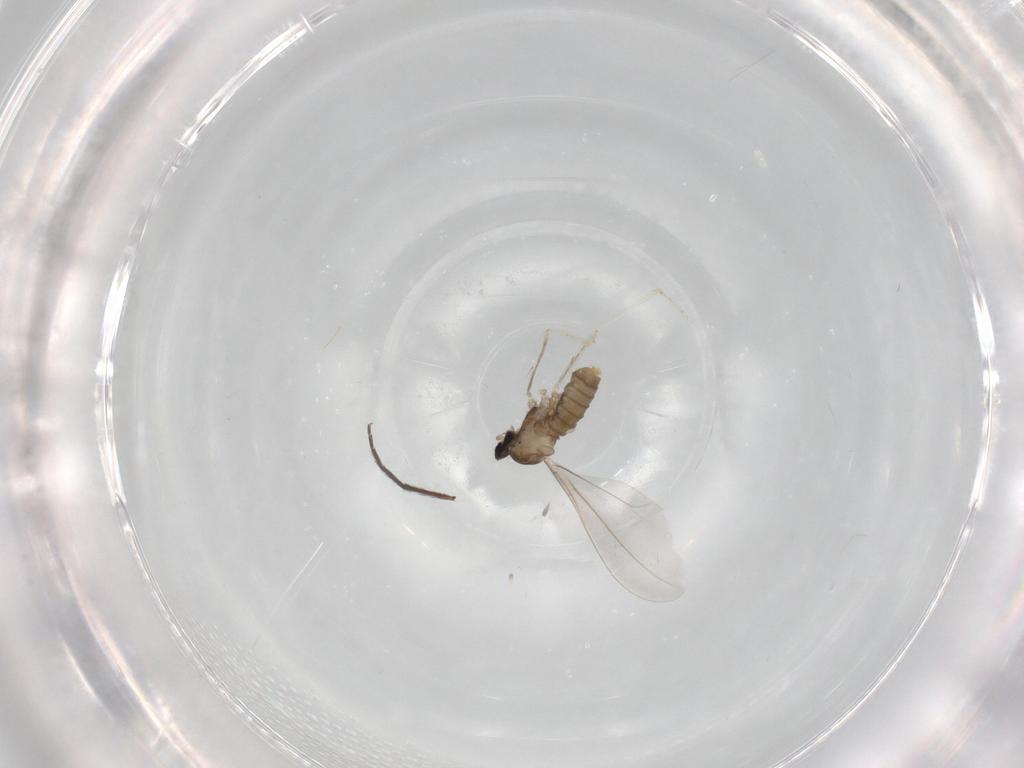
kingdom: Animalia
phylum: Arthropoda
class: Insecta
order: Diptera
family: Cecidomyiidae
